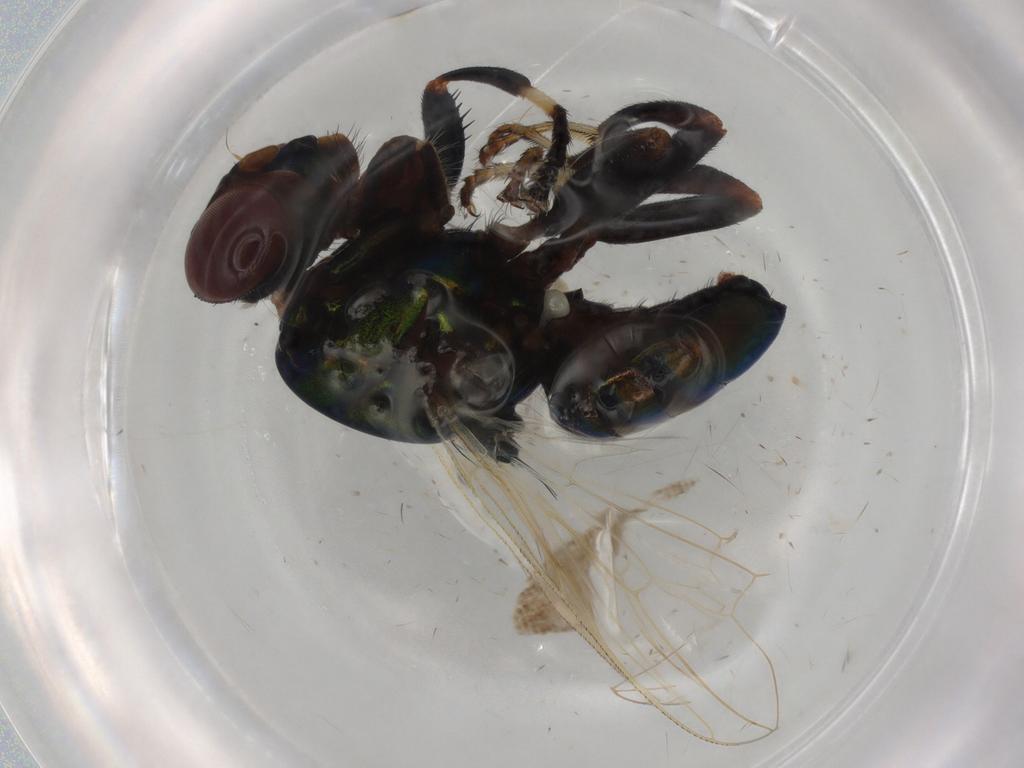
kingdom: Animalia
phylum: Arthropoda
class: Insecta
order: Diptera
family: Ulidiidae
